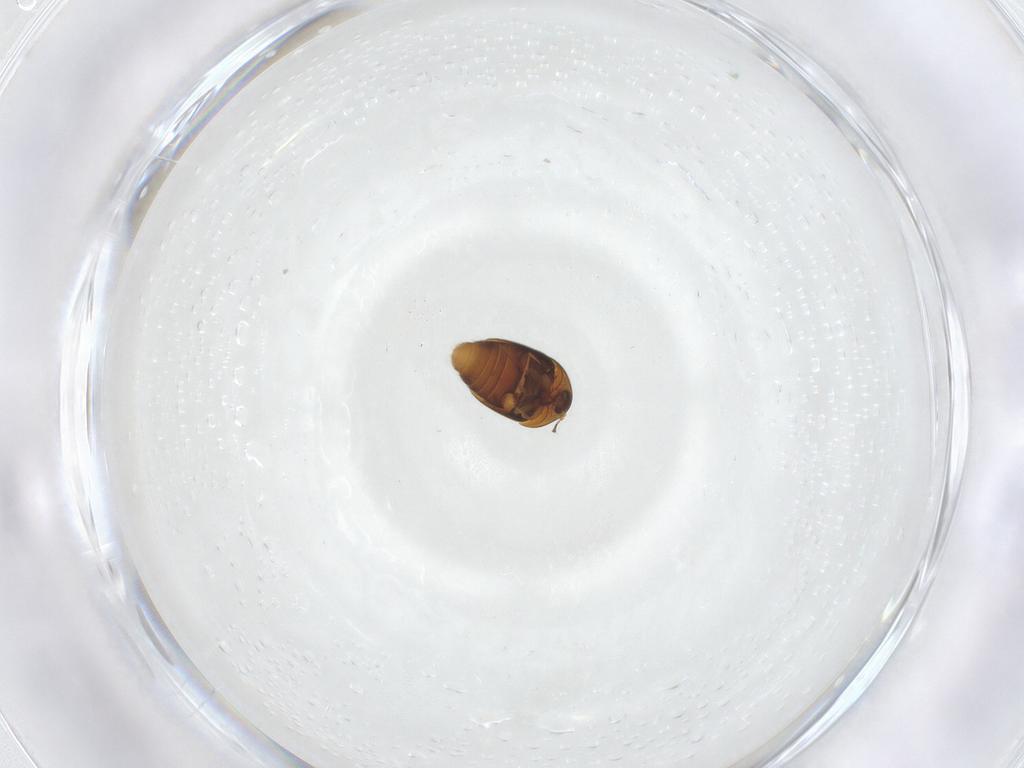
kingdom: Animalia
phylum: Arthropoda
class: Insecta
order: Coleoptera
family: Corylophidae
